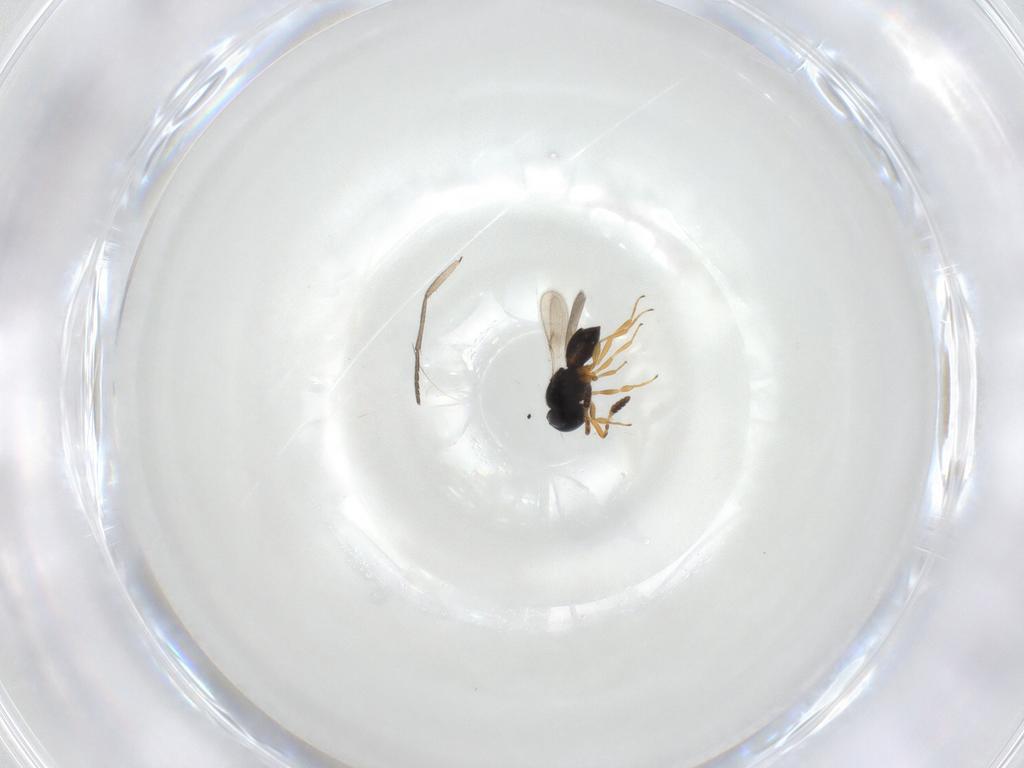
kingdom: Animalia
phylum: Arthropoda
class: Insecta
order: Hymenoptera
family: Scelionidae
